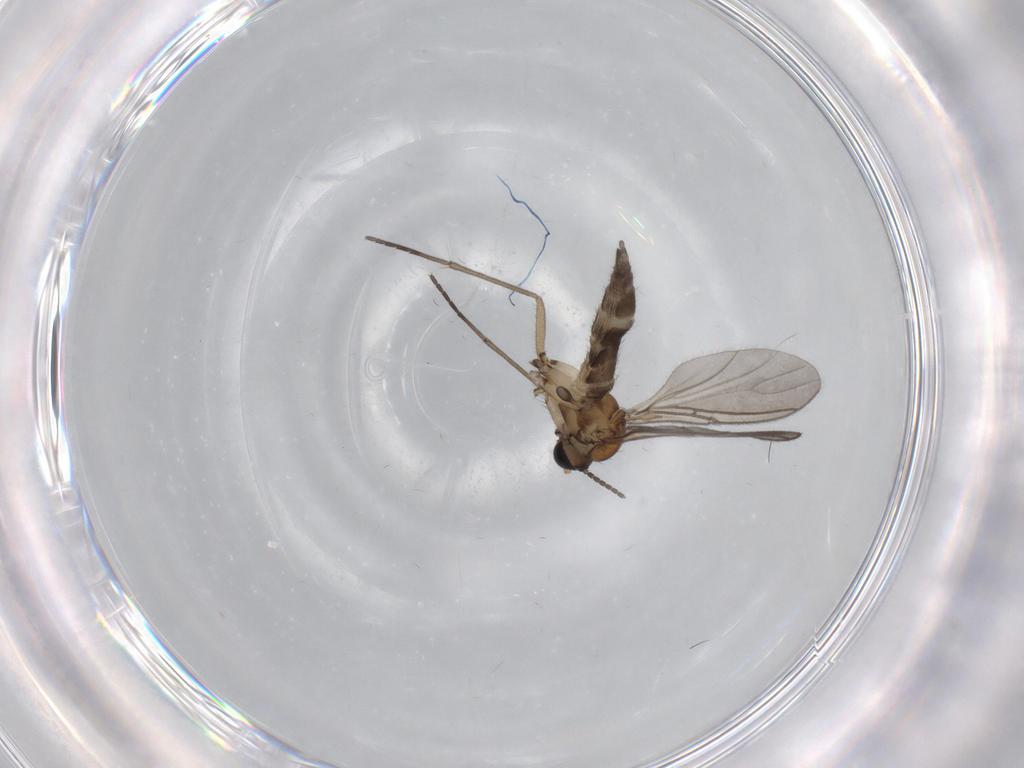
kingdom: Animalia
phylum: Arthropoda
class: Insecta
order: Diptera
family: Sciaridae
